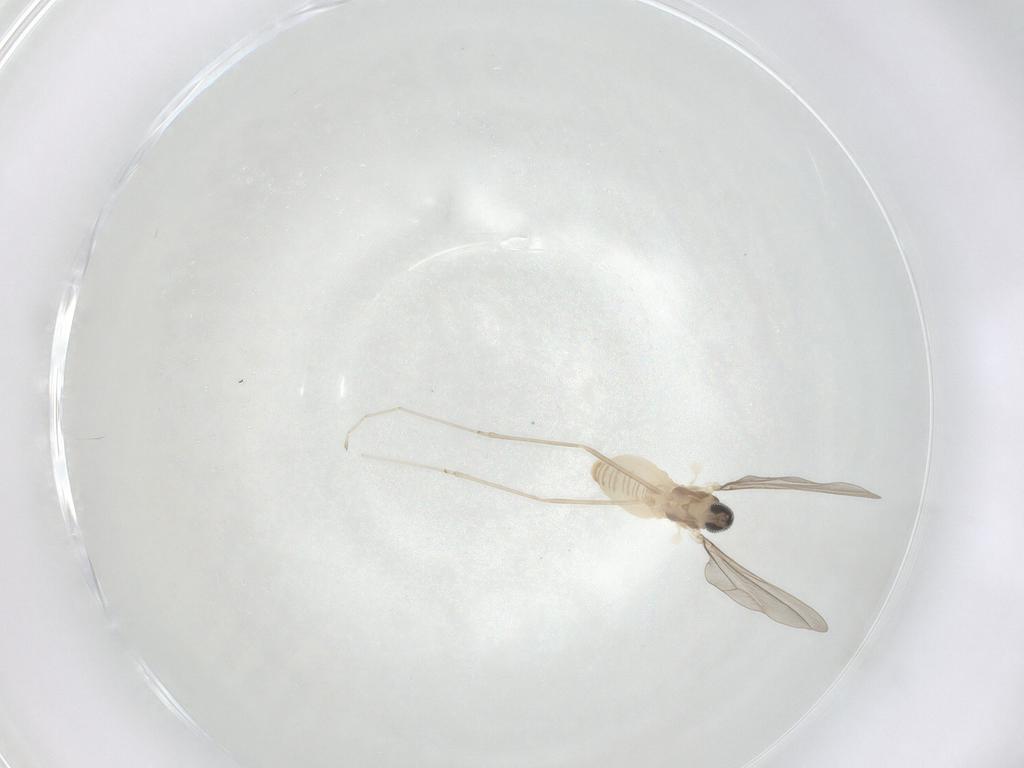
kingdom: Animalia
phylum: Arthropoda
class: Insecta
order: Diptera
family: Cecidomyiidae
